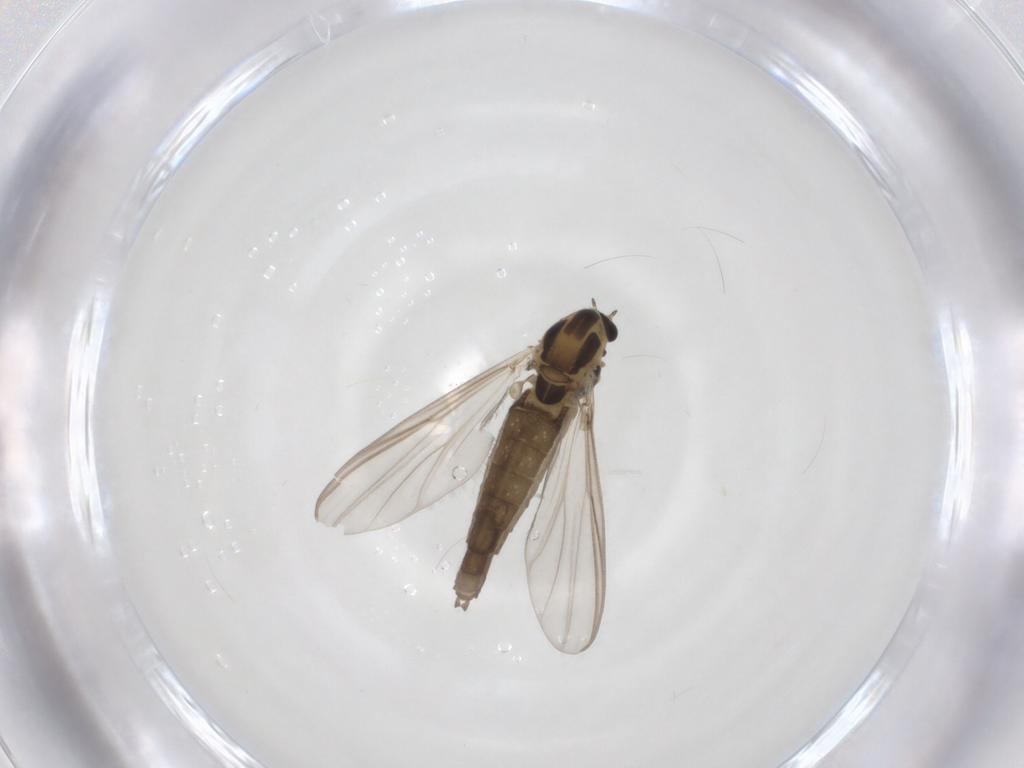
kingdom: Animalia
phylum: Arthropoda
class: Insecta
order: Diptera
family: Chironomidae
